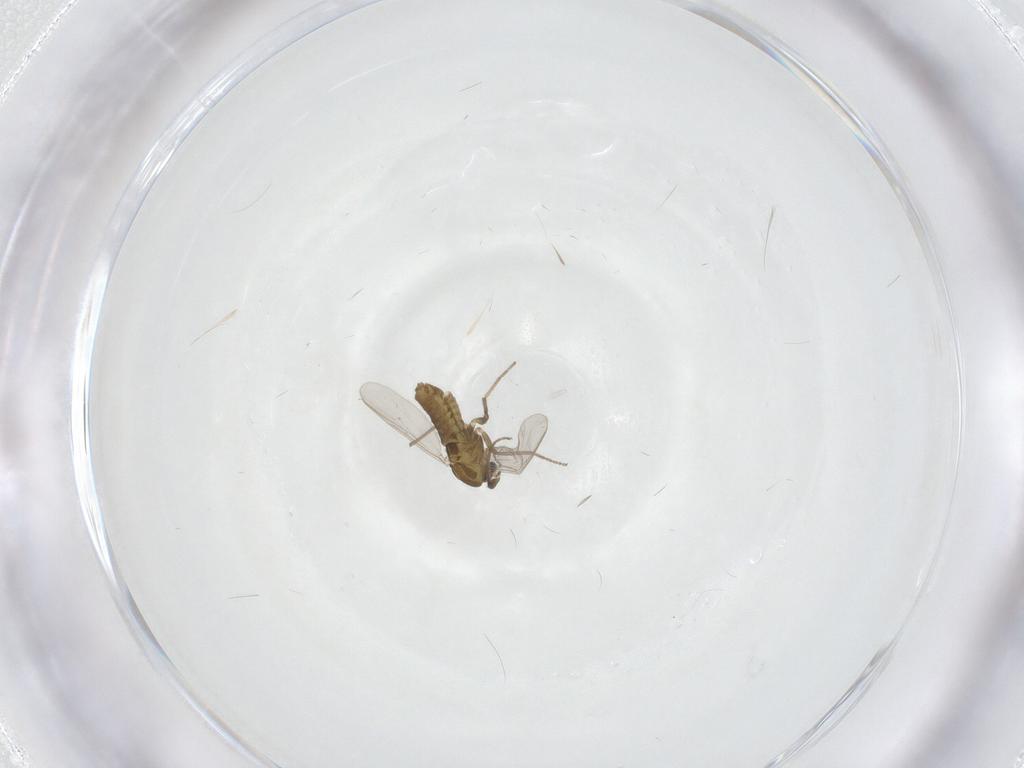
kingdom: Animalia
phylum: Arthropoda
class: Insecta
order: Diptera
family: Chironomidae
